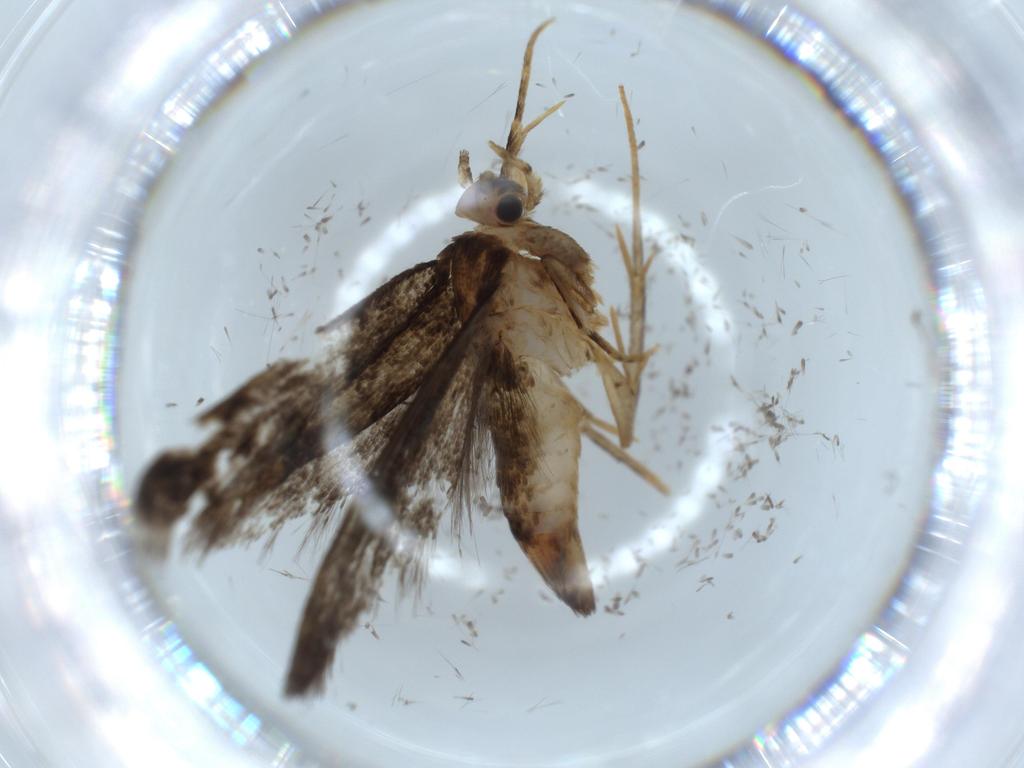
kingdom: Animalia
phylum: Arthropoda
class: Insecta
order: Lepidoptera
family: Tineidae
